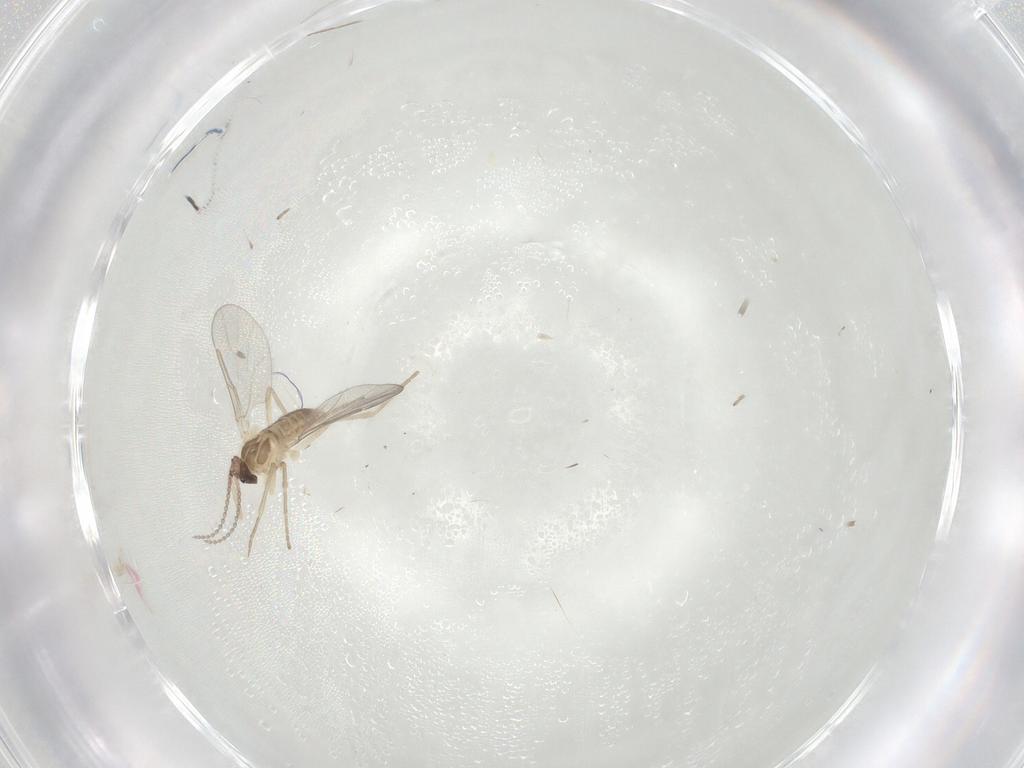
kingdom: Animalia
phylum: Arthropoda
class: Insecta
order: Diptera
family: Cecidomyiidae
